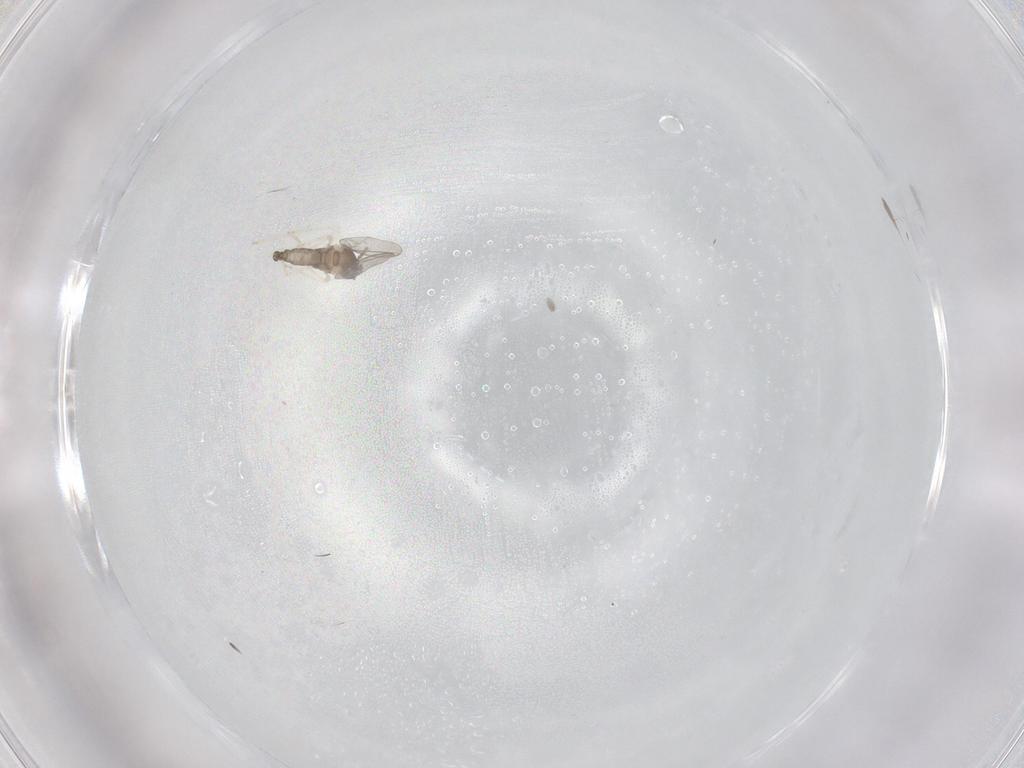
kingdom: Animalia
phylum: Arthropoda
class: Insecta
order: Diptera
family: Cecidomyiidae
